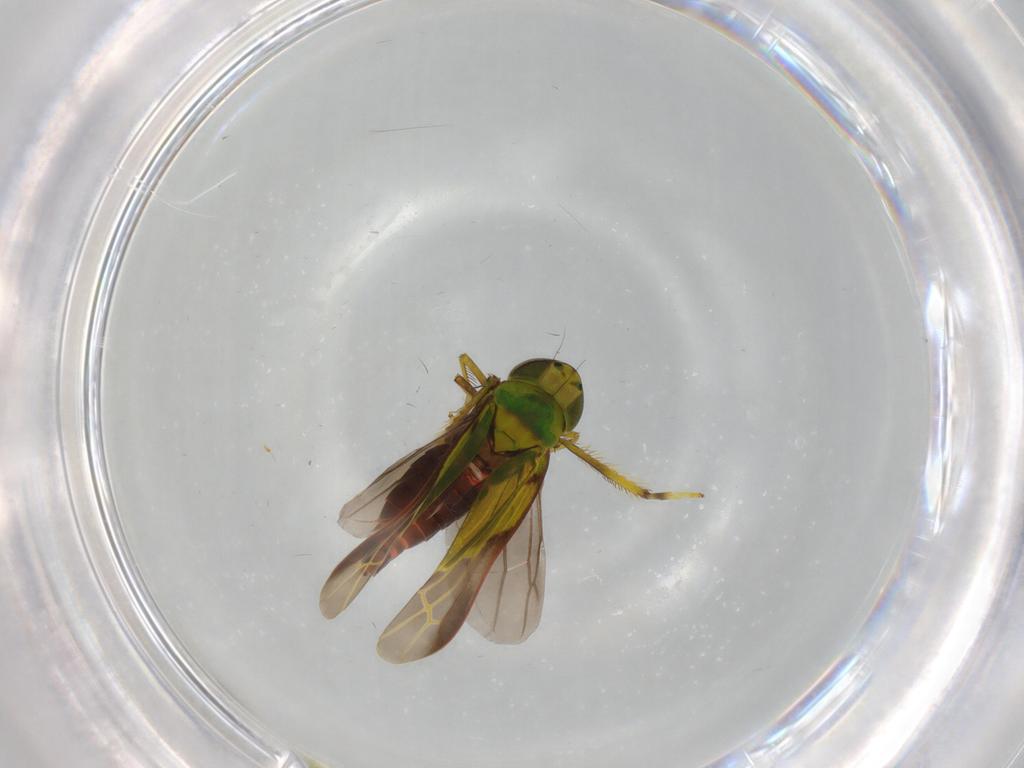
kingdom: Animalia
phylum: Arthropoda
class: Insecta
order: Hemiptera
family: Cicadellidae
